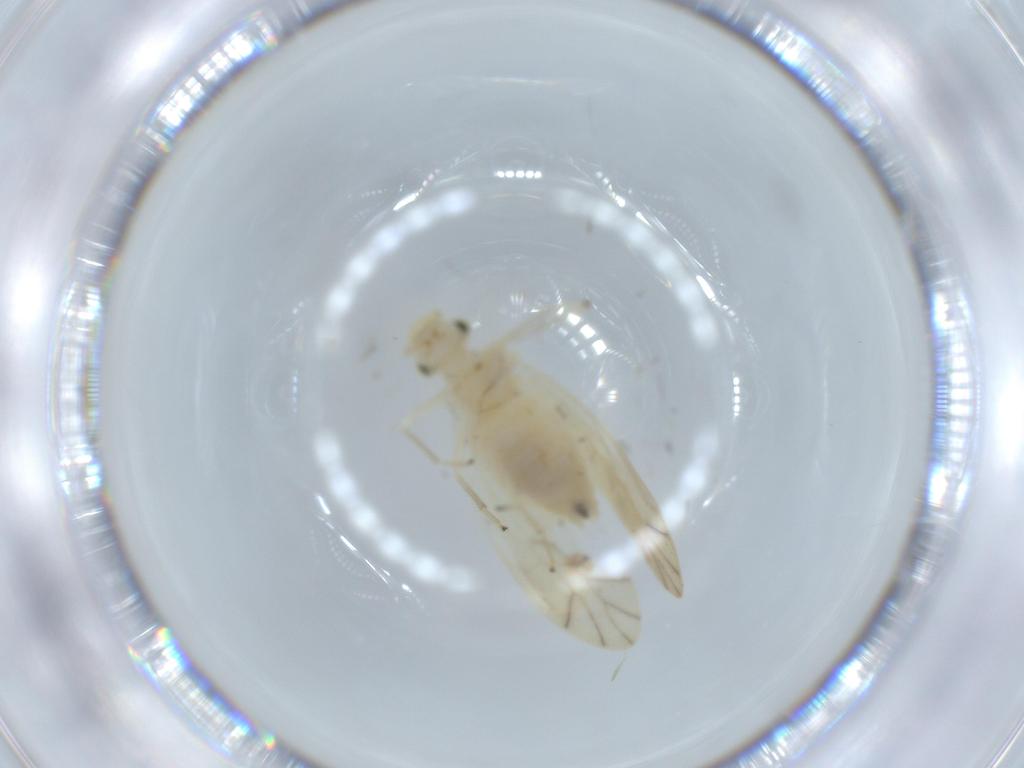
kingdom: Animalia
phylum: Arthropoda
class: Insecta
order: Psocodea
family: Caeciliusidae
